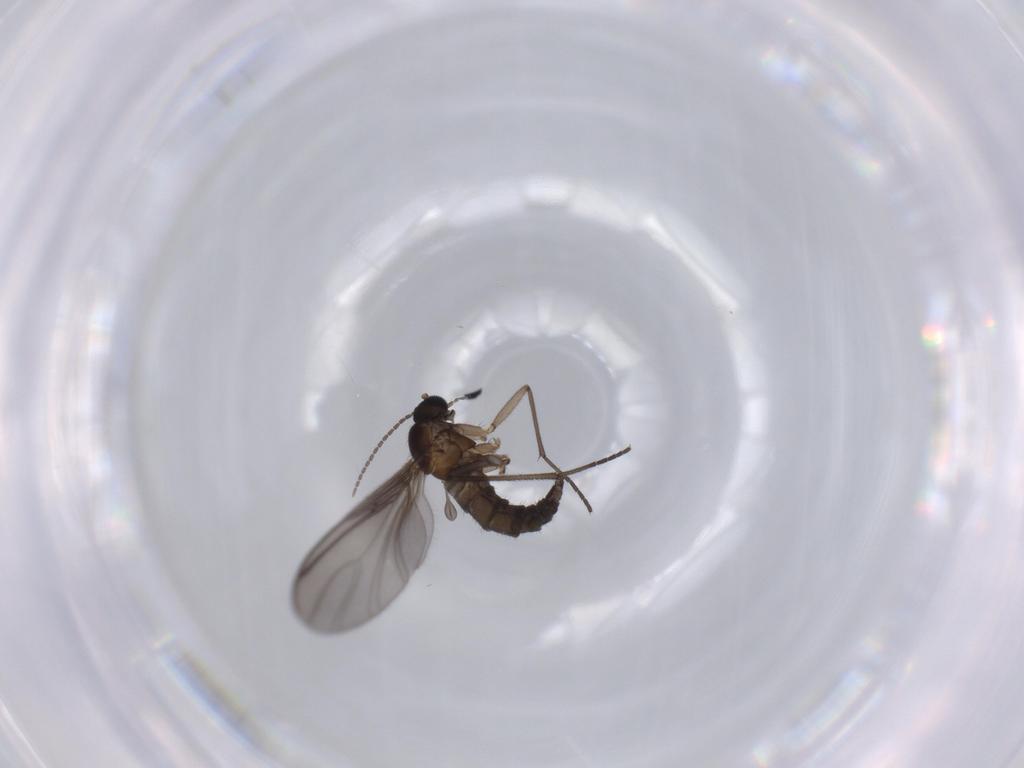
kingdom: Animalia
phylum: Arthropoda
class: Insecta
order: Diptera
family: Sciaridae
